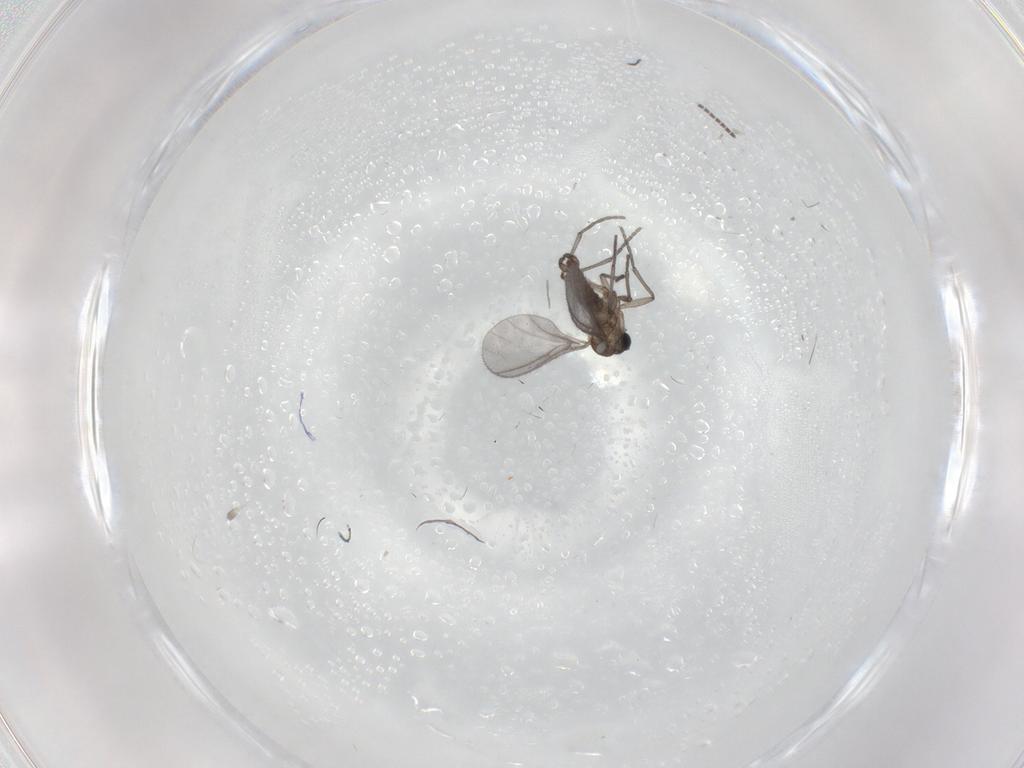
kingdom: Animalia
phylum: Arthropoda
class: Insecta
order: Diptera
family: Sciaridae
